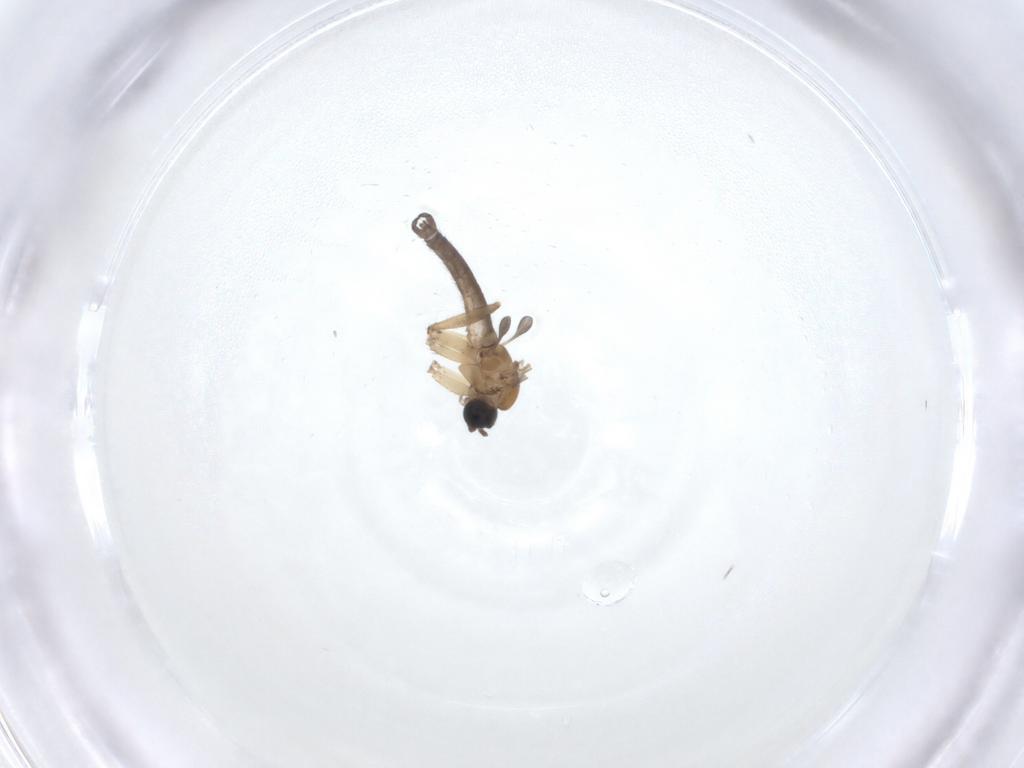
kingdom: Animalia
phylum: Arthropoda
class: Insecta
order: Diptera
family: Sciaridae
